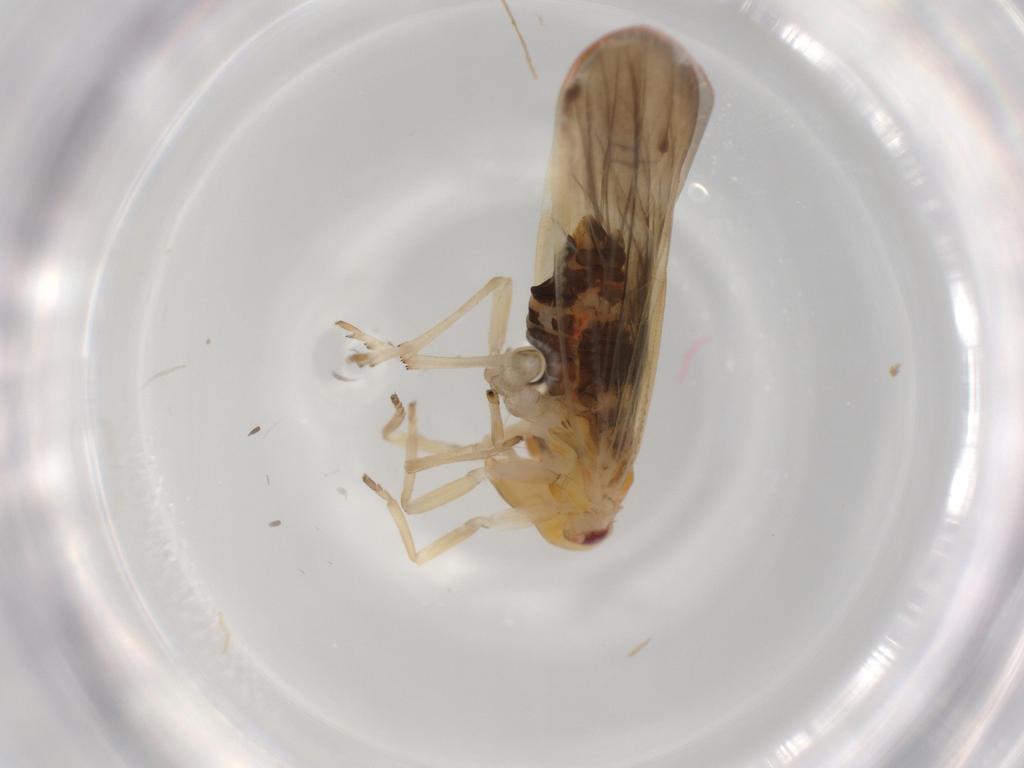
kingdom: Animalia
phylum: Arthropoda
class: Insecta
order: Hemiptera
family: Derbidae
